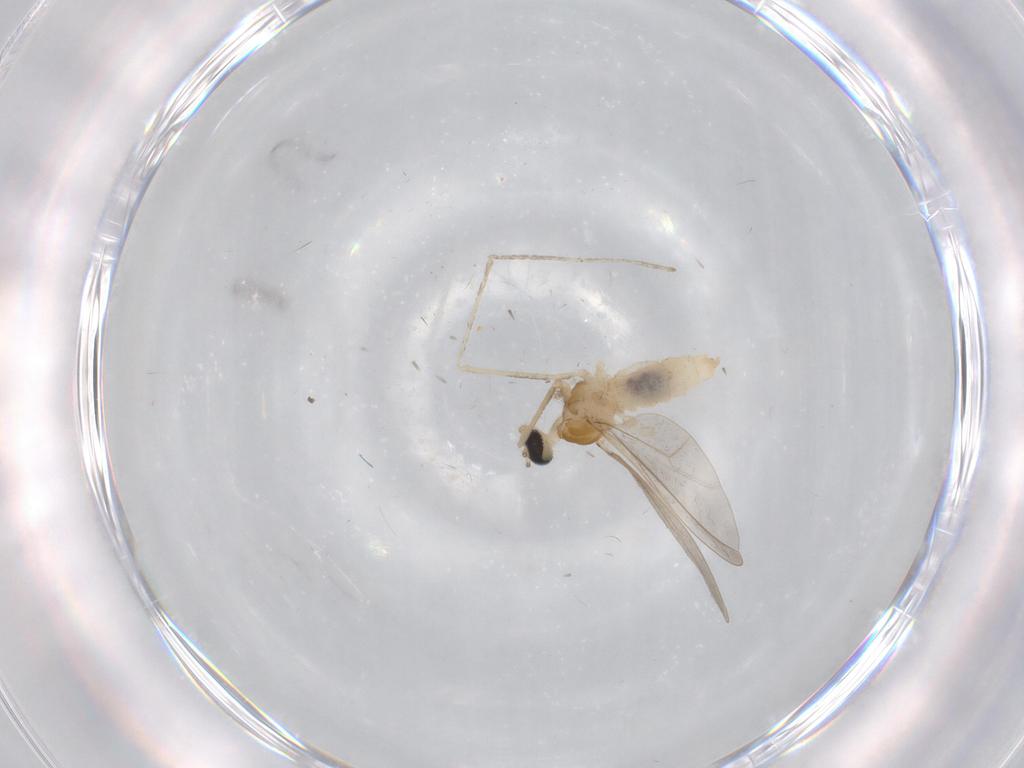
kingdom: Animalia
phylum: Arthropoda
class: Insecta
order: Diptera
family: Cecidomyiidae
